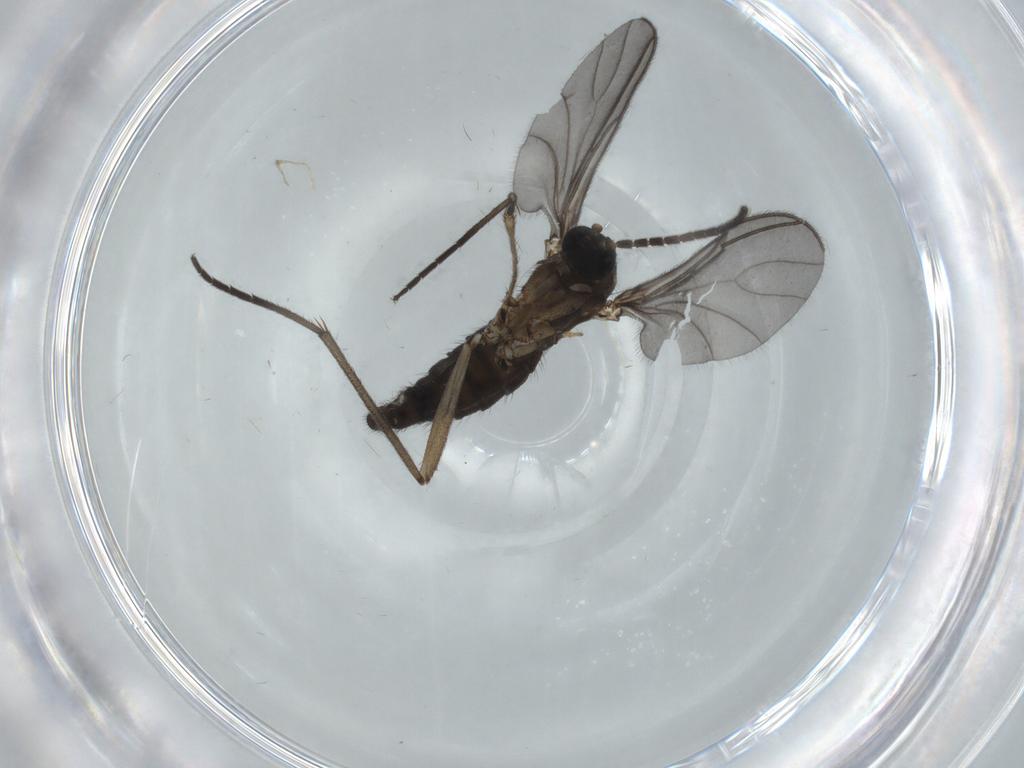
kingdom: Animalia
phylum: Arthropoda
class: Insecta
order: Diptera
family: Sciaridae
